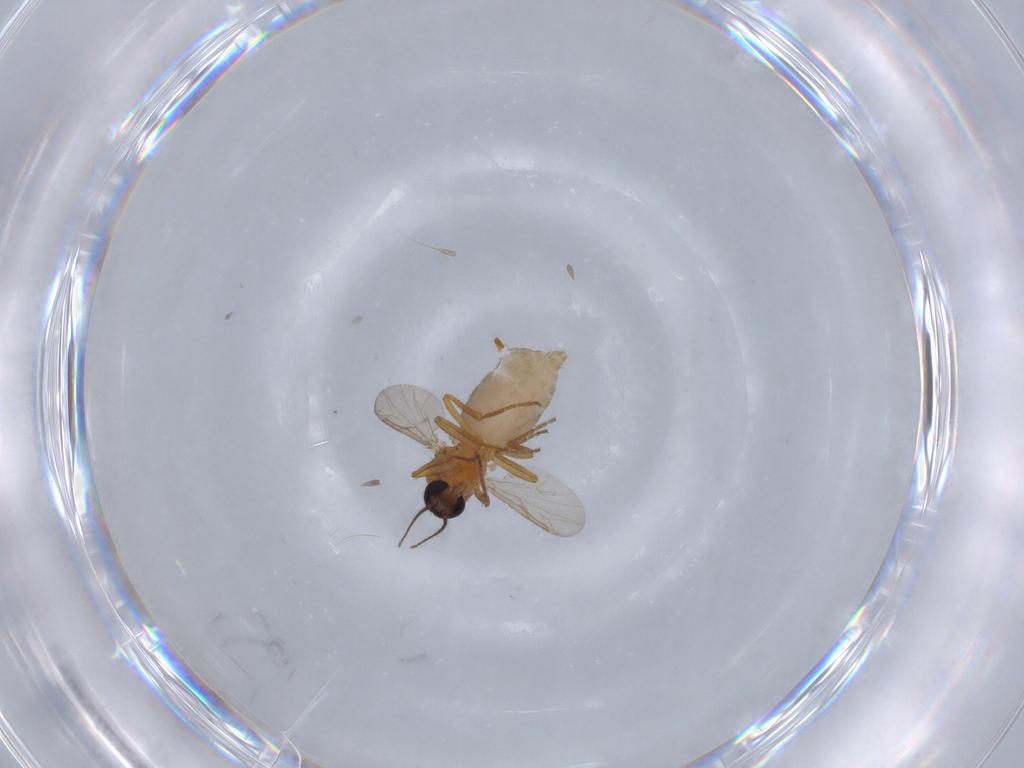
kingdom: Animalia
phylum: Arthropoda
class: Insecta
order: Diptera
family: Ceratopogonidae
